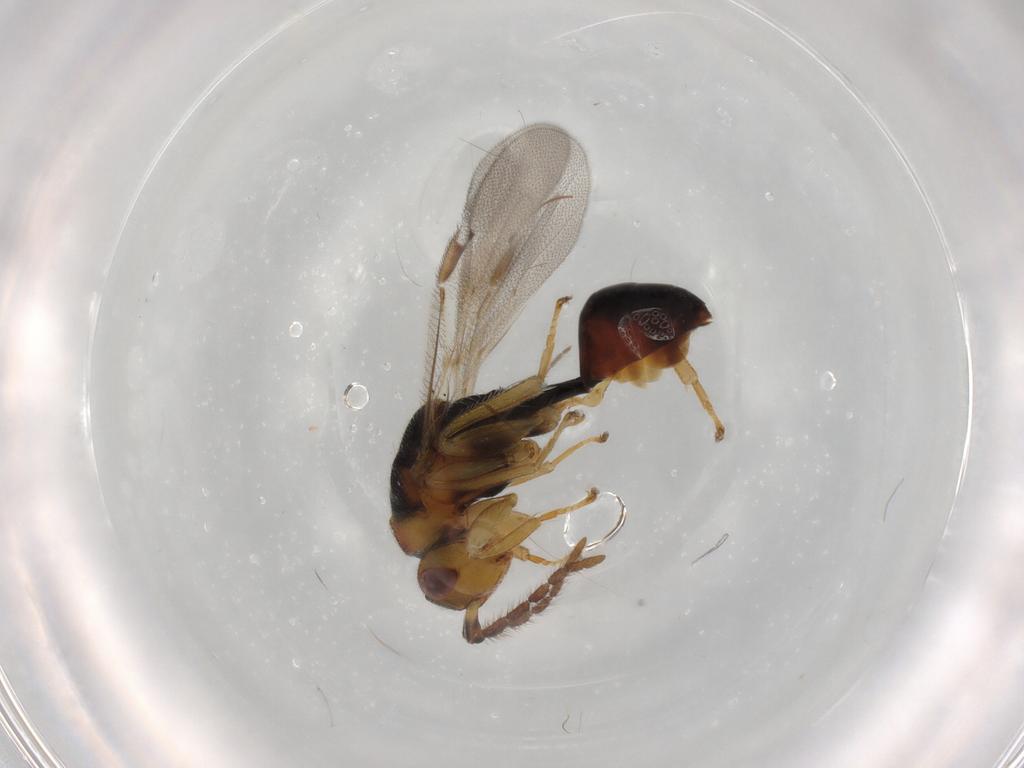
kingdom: Animalia
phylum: Arthropoda
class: Insecta
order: Hymenoptera
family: Eurytomidae
